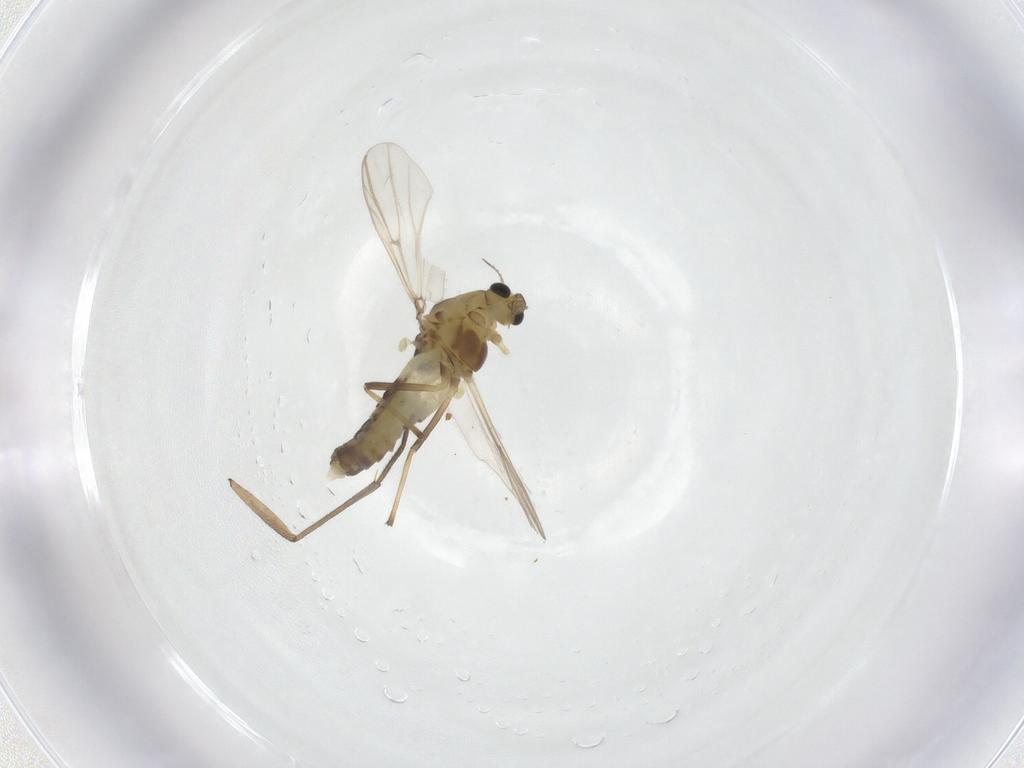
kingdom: Animalia
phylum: Arthropoda
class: Insecta
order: Diptera
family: Sciaridae
